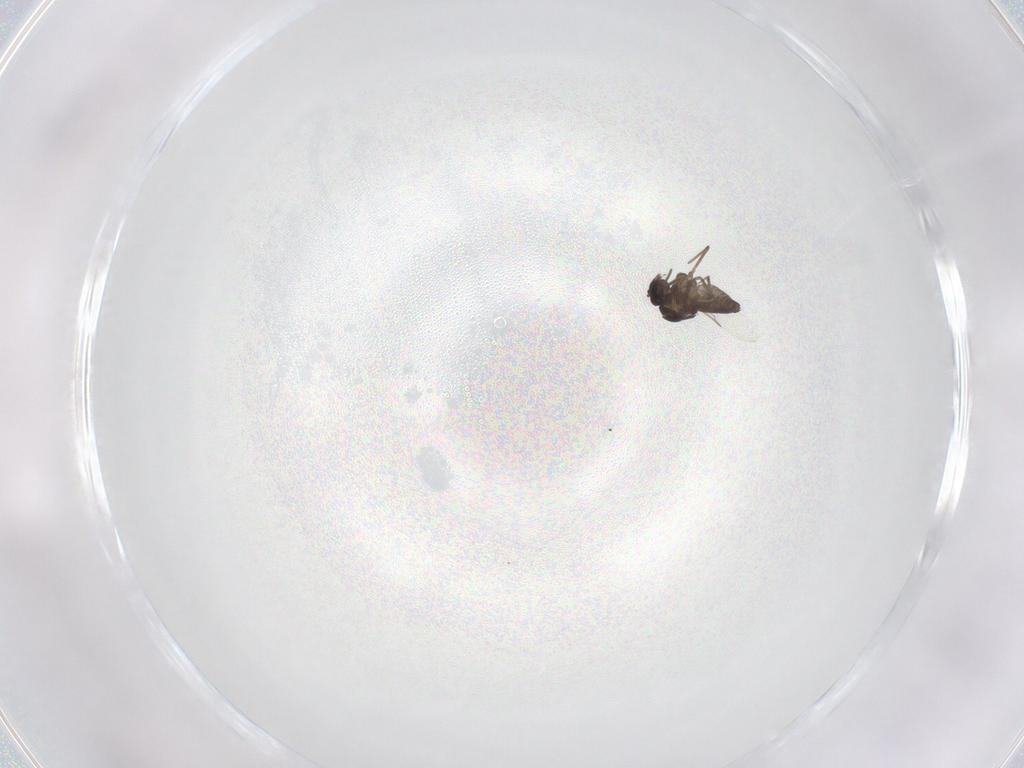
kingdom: Animalia
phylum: Arthropoda
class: Insecta
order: Diptera
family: Ceratopogonidae
